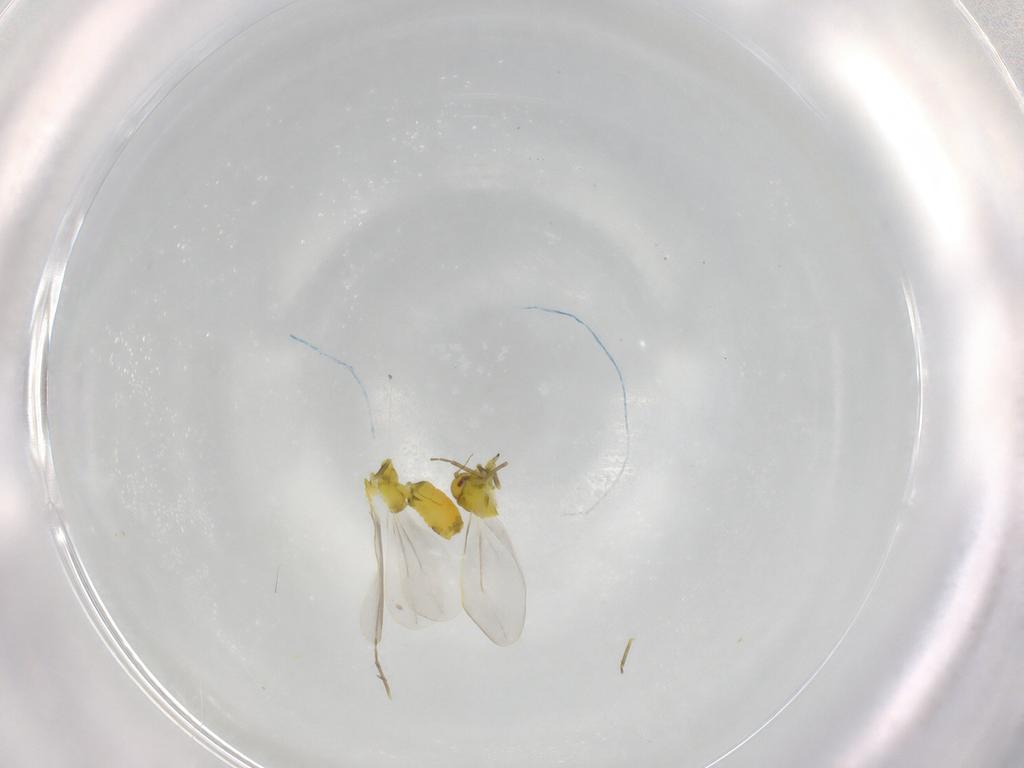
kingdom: Animalia
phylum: Arthropoda
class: Insecta
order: Hemiptera
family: Aleyrodidae
